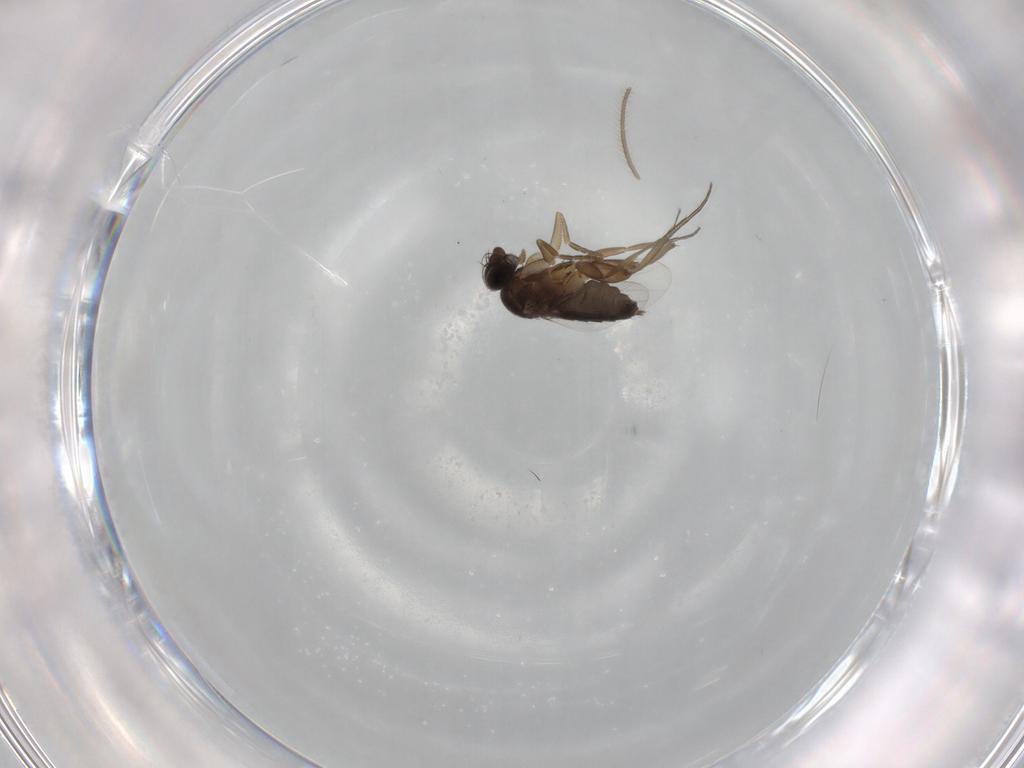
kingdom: Animalia
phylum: Arthropoda
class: Insecta
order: Diptera
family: Phoridae
